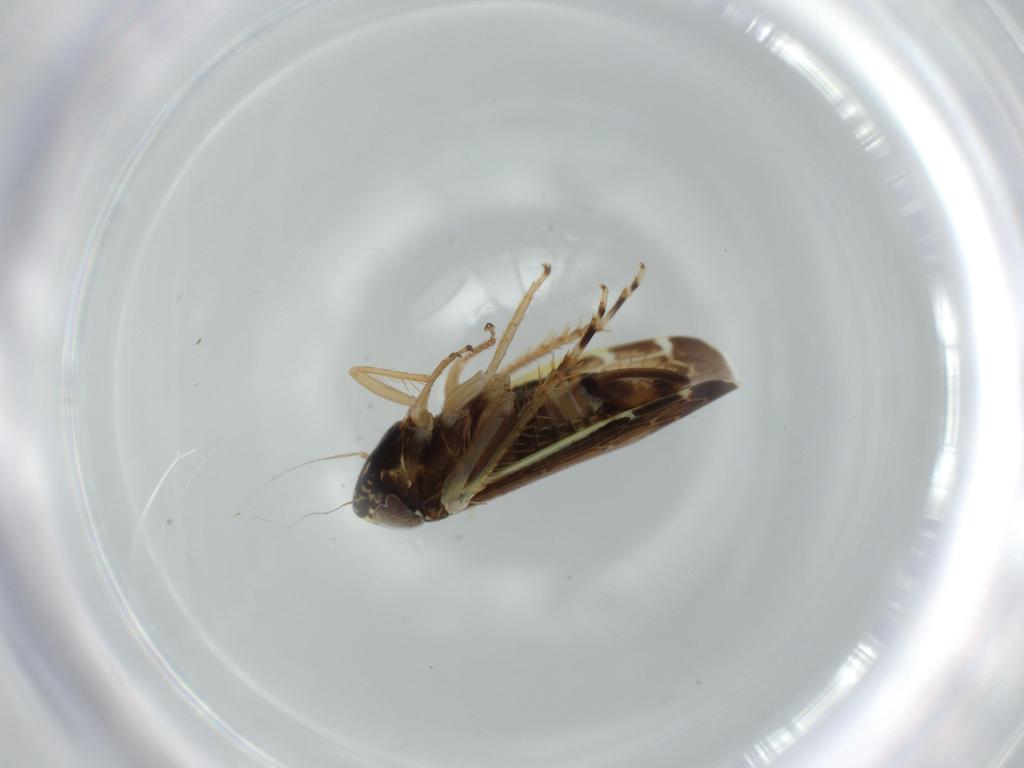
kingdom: Animalia
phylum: Arthropoda
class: Insecta
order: Hemiptera
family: Cicadellidae
